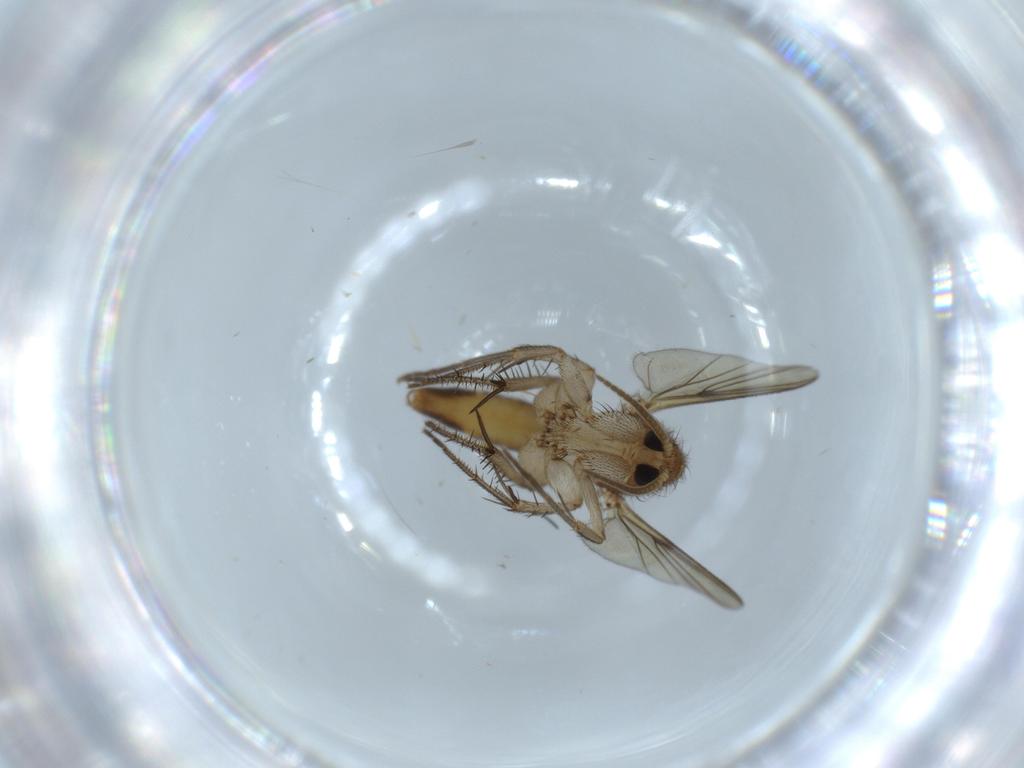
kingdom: Animalia
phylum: Arthropoda
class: Insecta
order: Diptera
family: Phoridae
